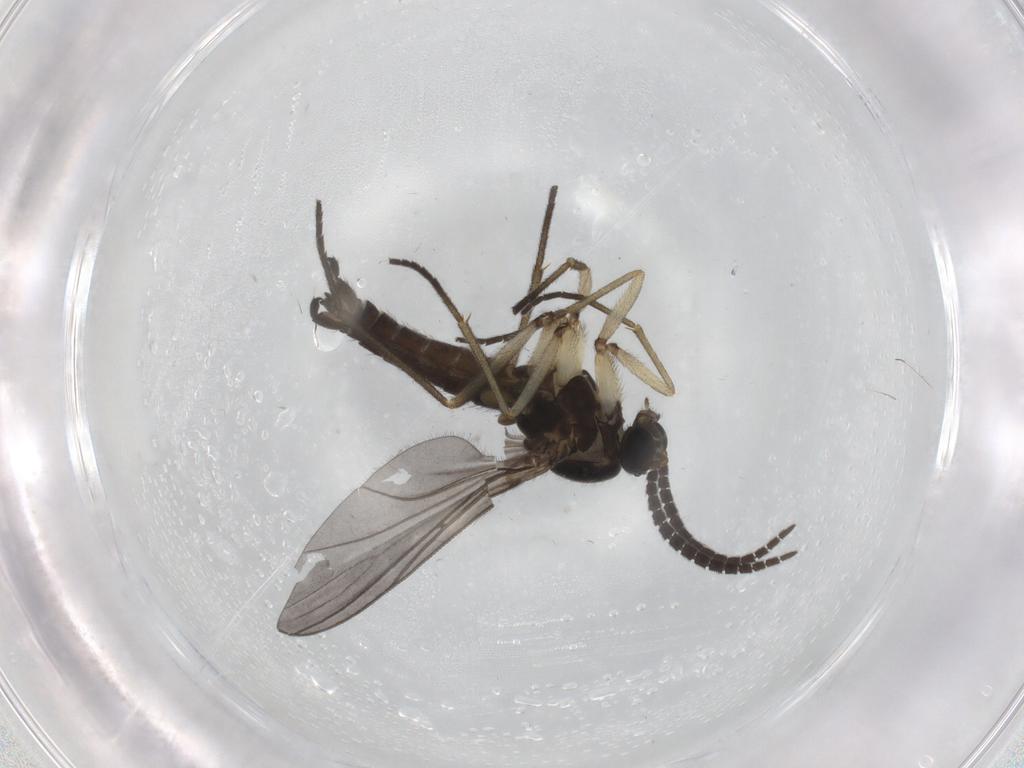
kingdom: Animalia
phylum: Arthropoda
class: Insecta
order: Diptera
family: Sciaridae
